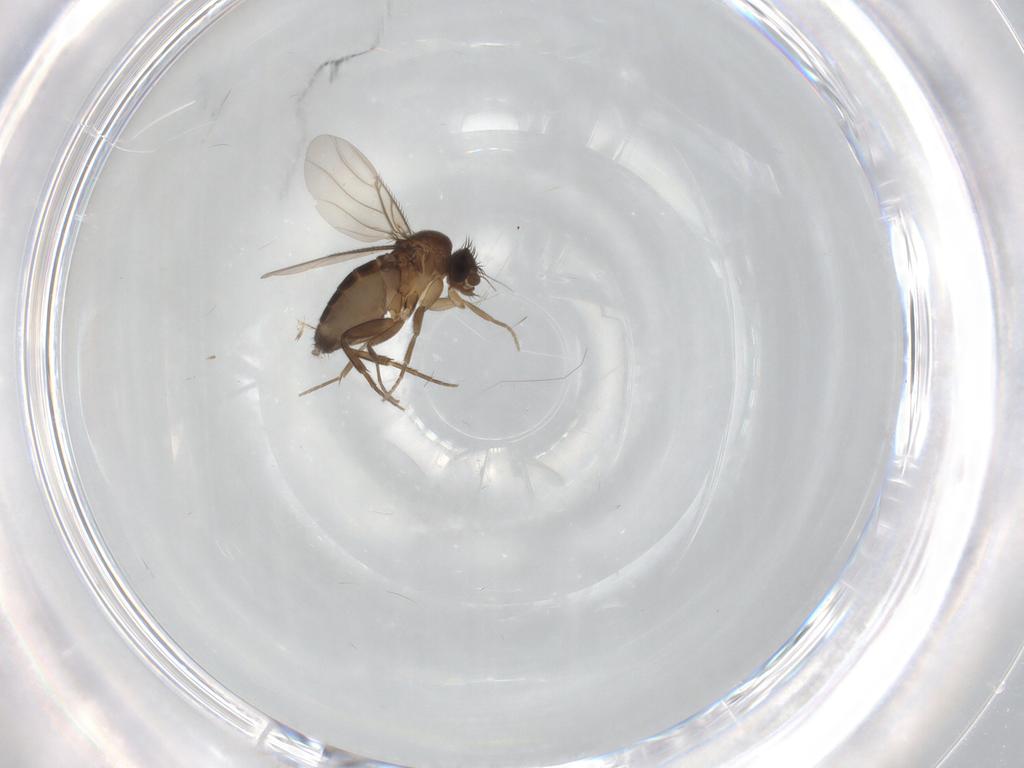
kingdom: Animalia
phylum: Arthropoda
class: Insecta
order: Diptera
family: Phoridae
